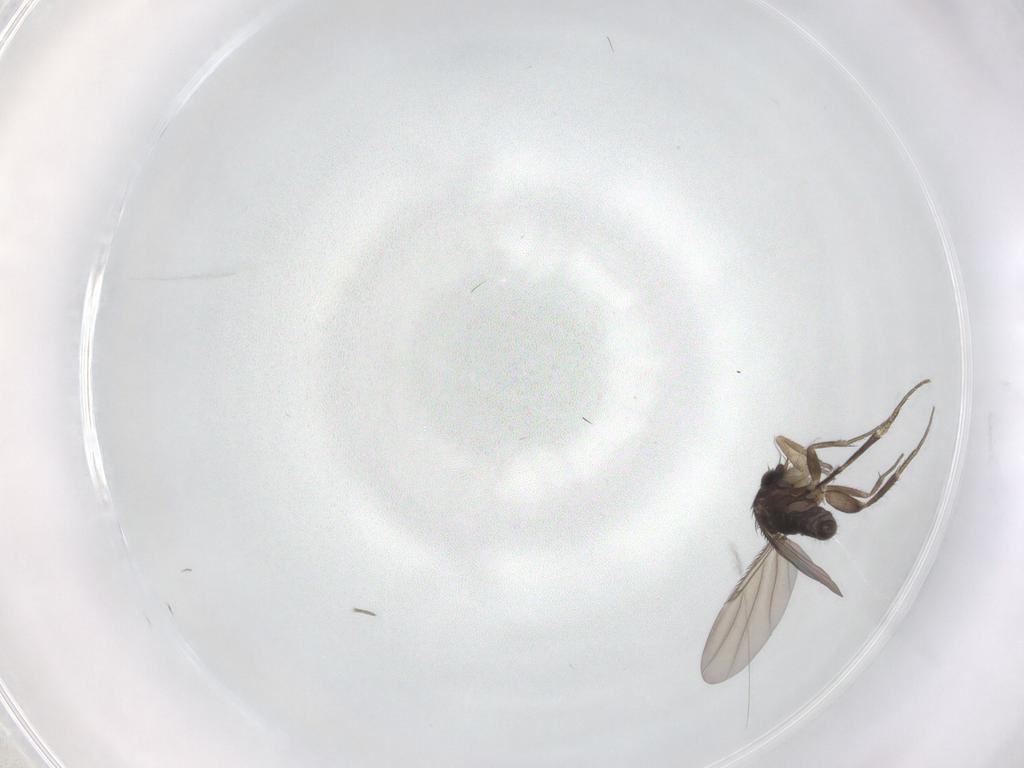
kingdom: Animalia
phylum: Arthropoda
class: Insecta
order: Diptera
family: Phoridae
